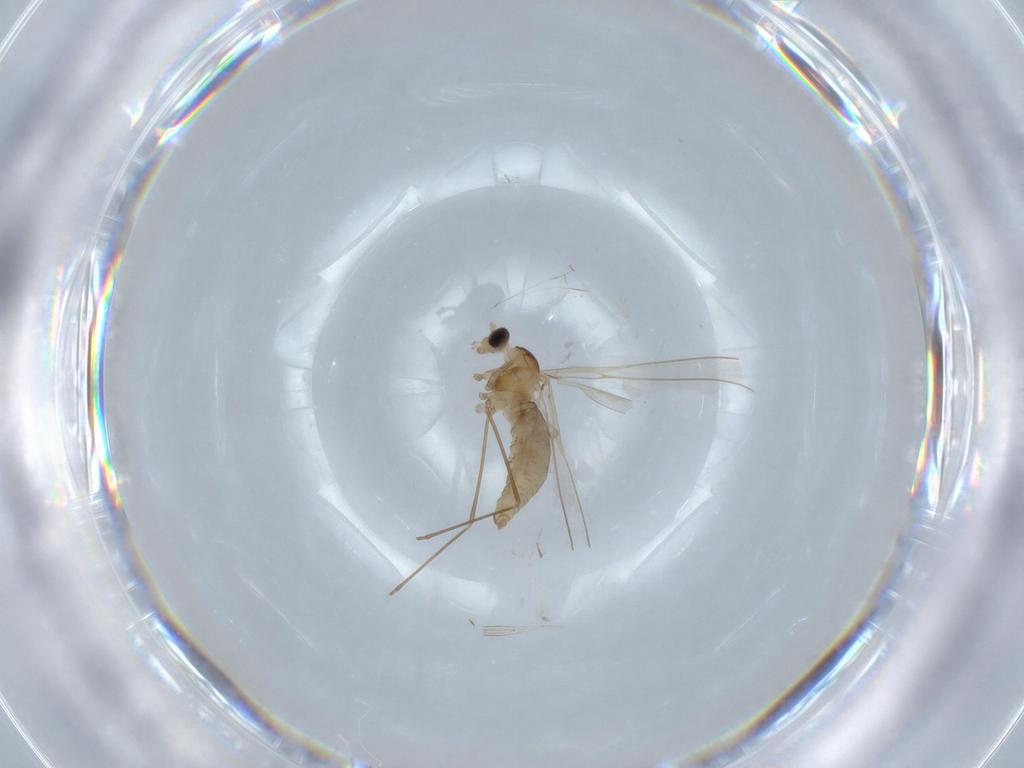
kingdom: Animalia
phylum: Arthropoda
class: Insecta
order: Diptera
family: Cecidomyiidae
